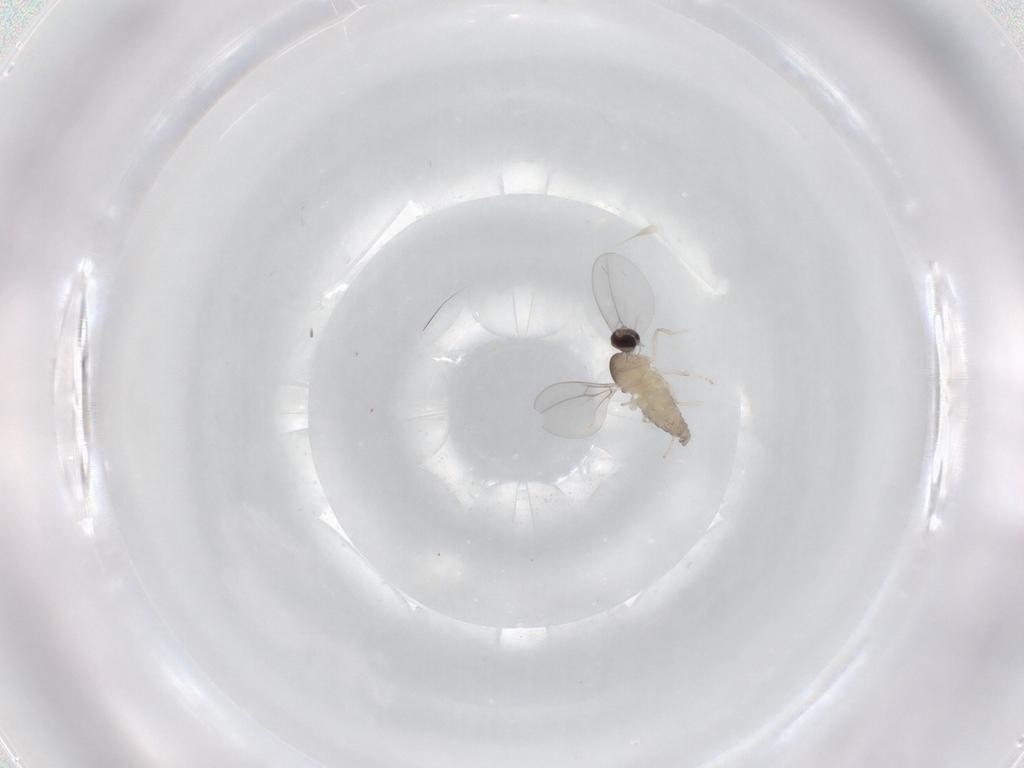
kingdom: Animalia
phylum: Arthropoda
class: Insecta
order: Diptera
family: Cecidomyiidae
